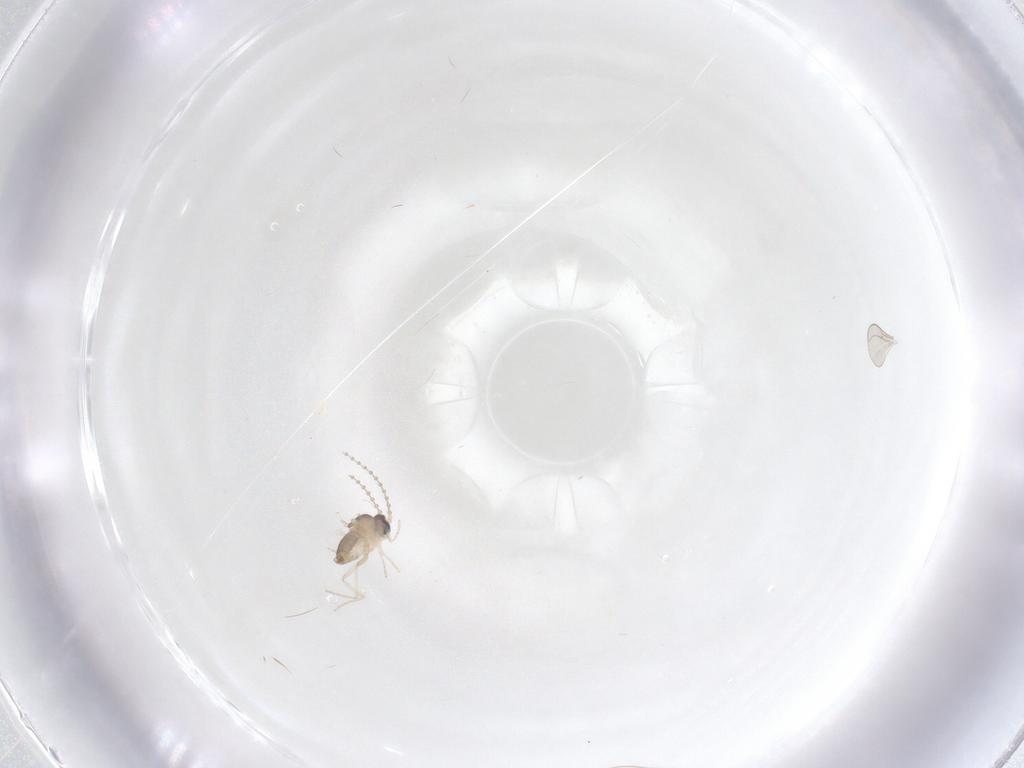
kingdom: Animalia
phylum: Arthropoda
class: Insecta
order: Diptera
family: Cecidomyiidae
